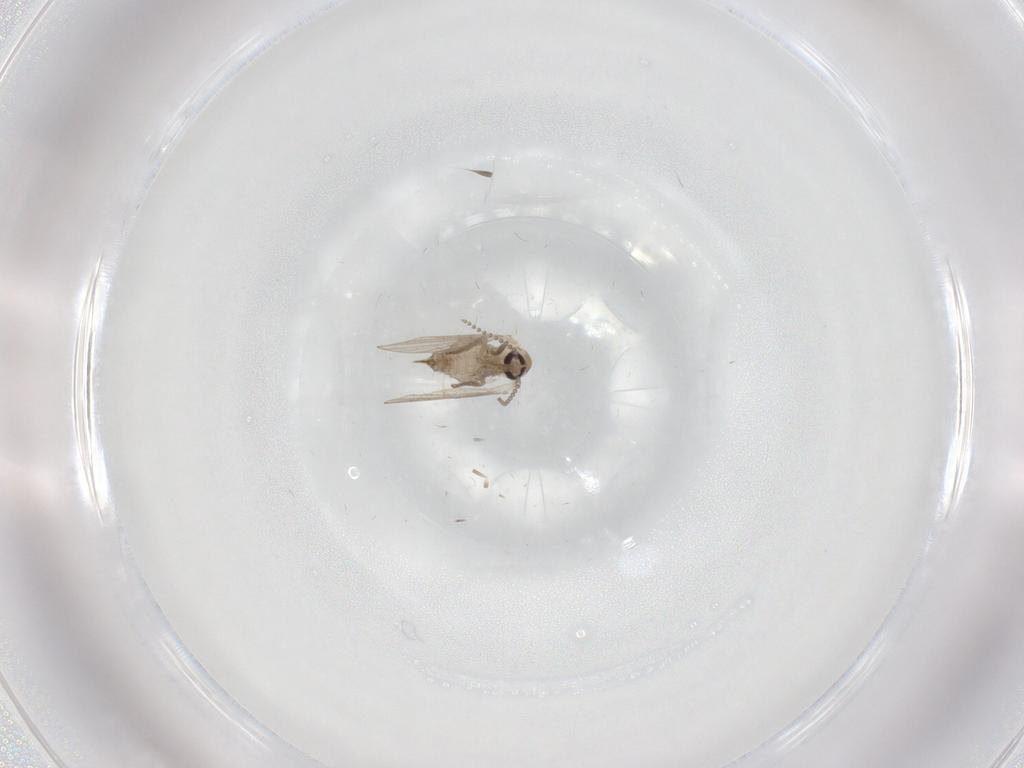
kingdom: Animalia
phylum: Arthropoda
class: Insecta
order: Diptera
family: Psychodidae
